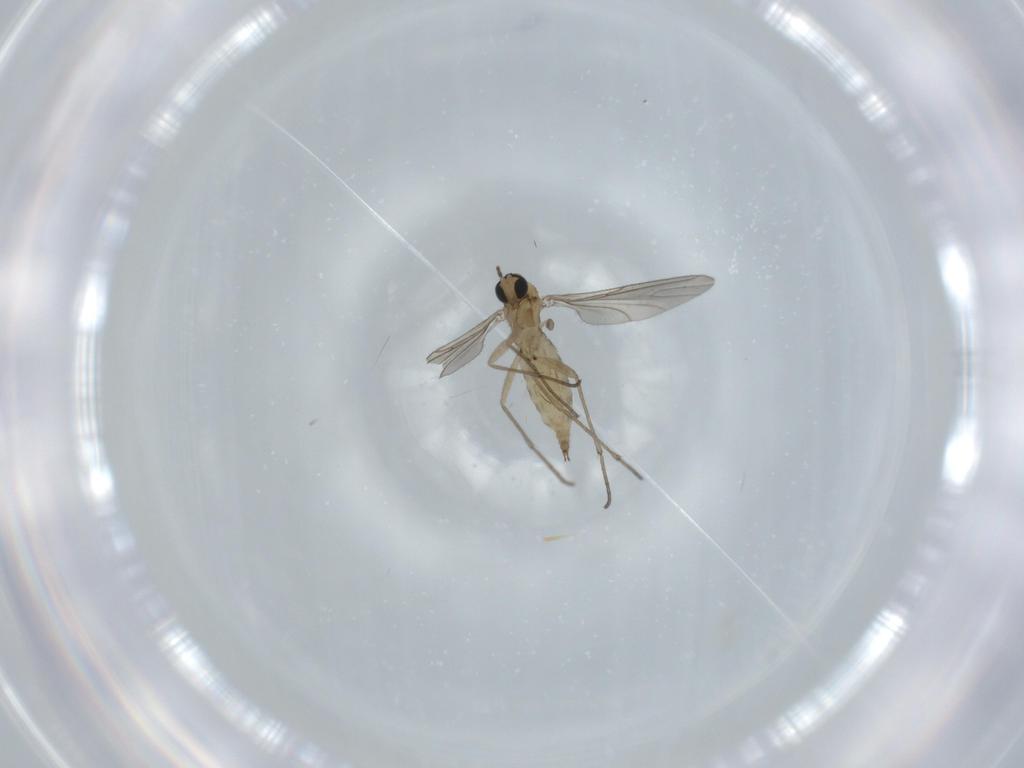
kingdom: Animalia
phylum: Arthropoda
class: Insecta
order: Diptera
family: Sciaridae
